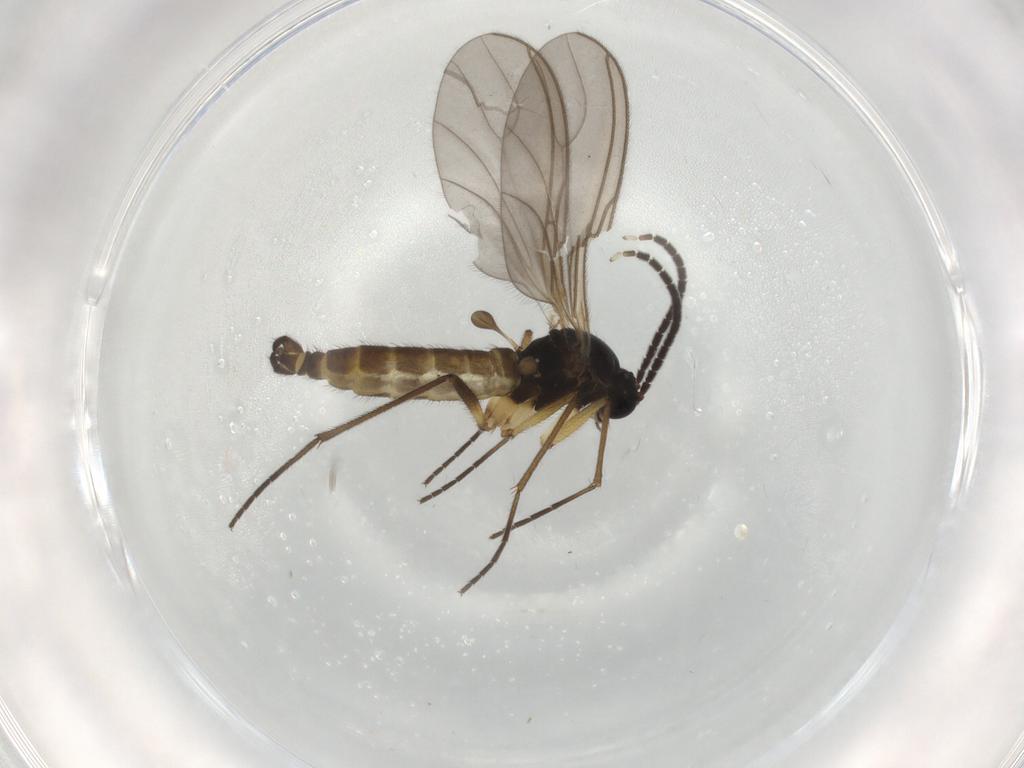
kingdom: Animalia
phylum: Arthropoda
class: Insecta
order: Diptera
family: Sciaridae
